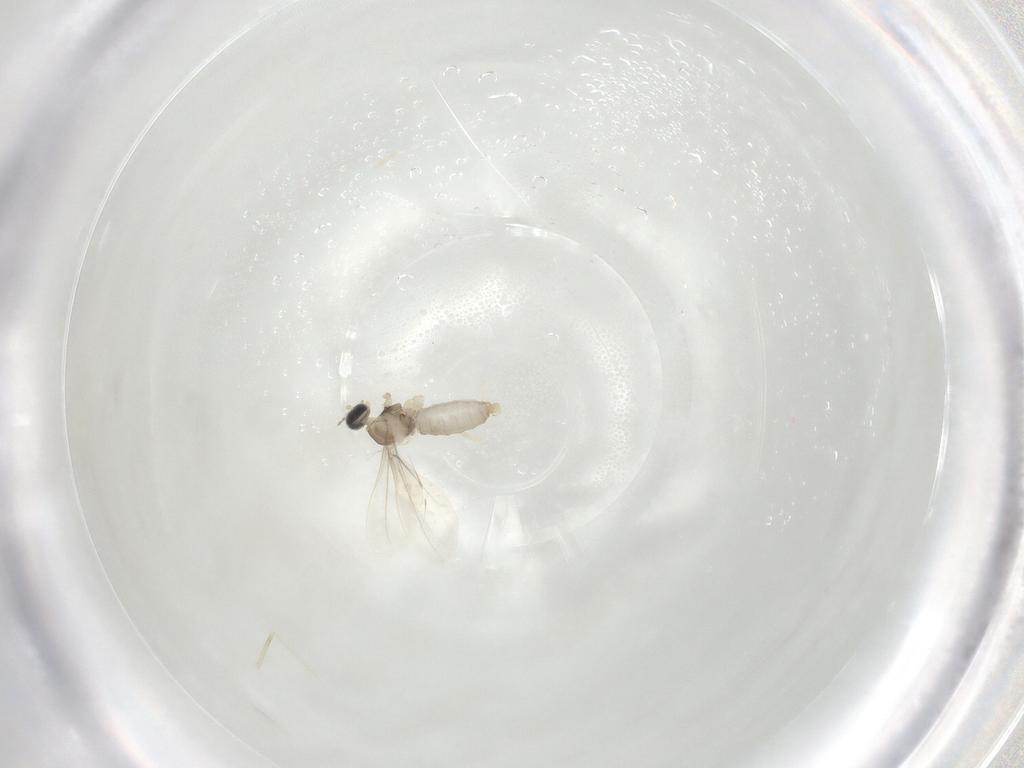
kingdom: Animalia
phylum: Arthropoda
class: Insecta
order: Diptera
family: Cecidomyiidae
